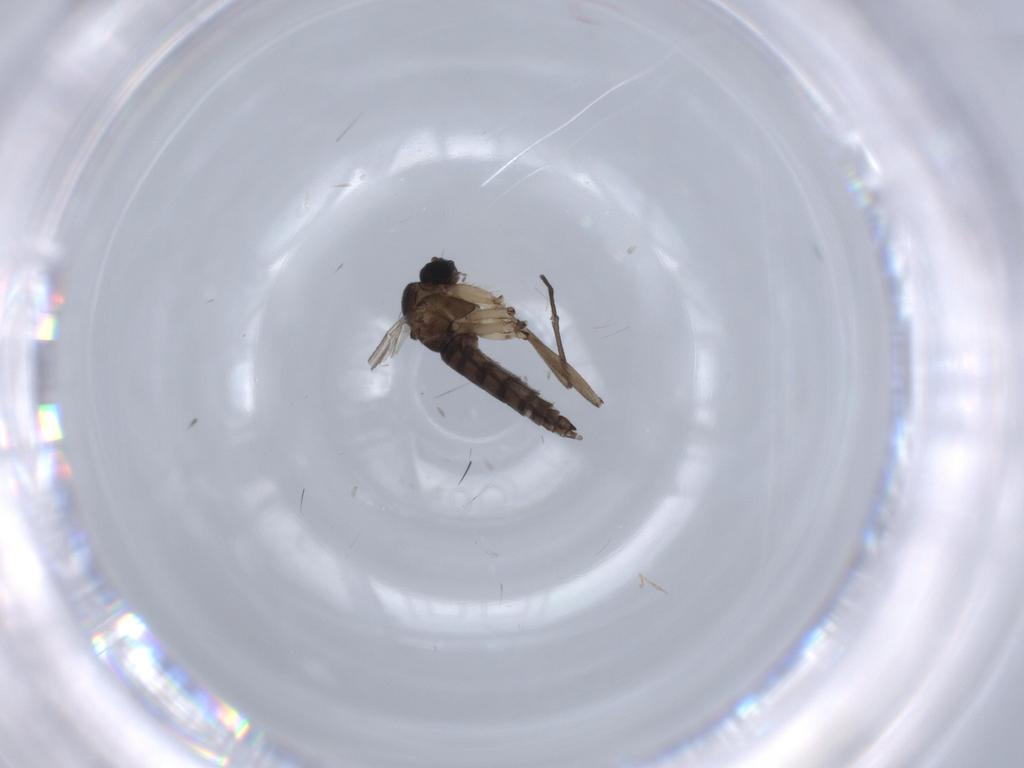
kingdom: Animalia
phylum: Arthropoda
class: Insecta
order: Diptera
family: Sciaridae
